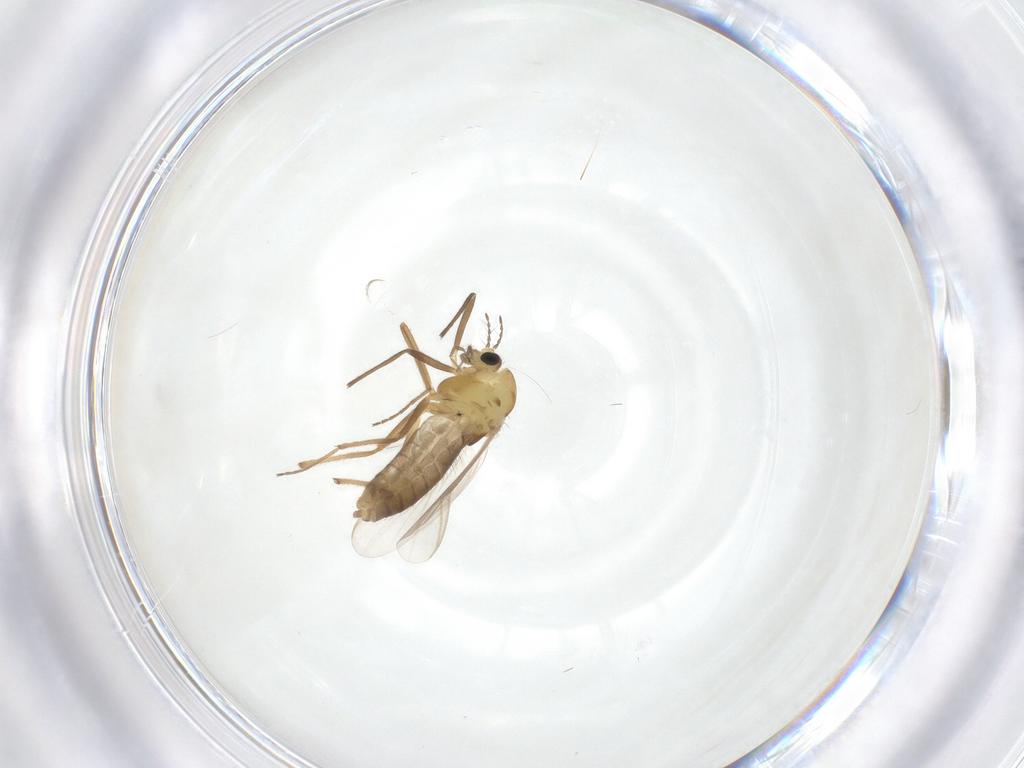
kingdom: Animalia
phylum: Arthropoda
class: Insecta
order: Diptera
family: Chironomidae
